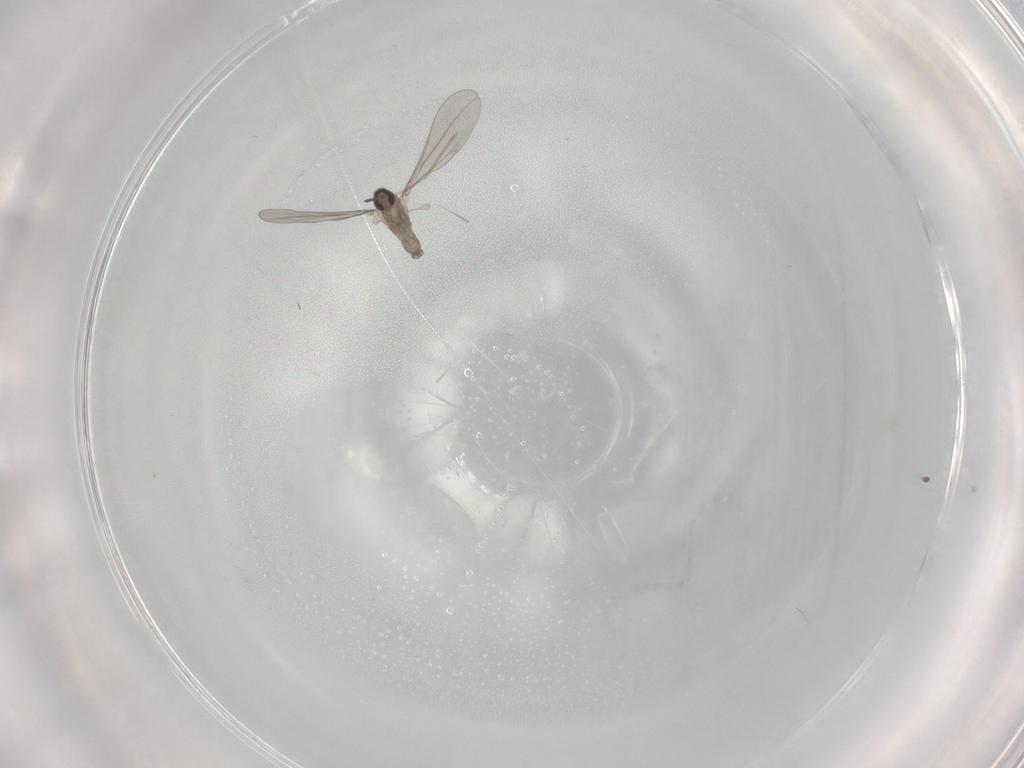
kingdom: Animalia
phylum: Arthropoda
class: Insecta
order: Diptera
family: Cecidomyiidae
